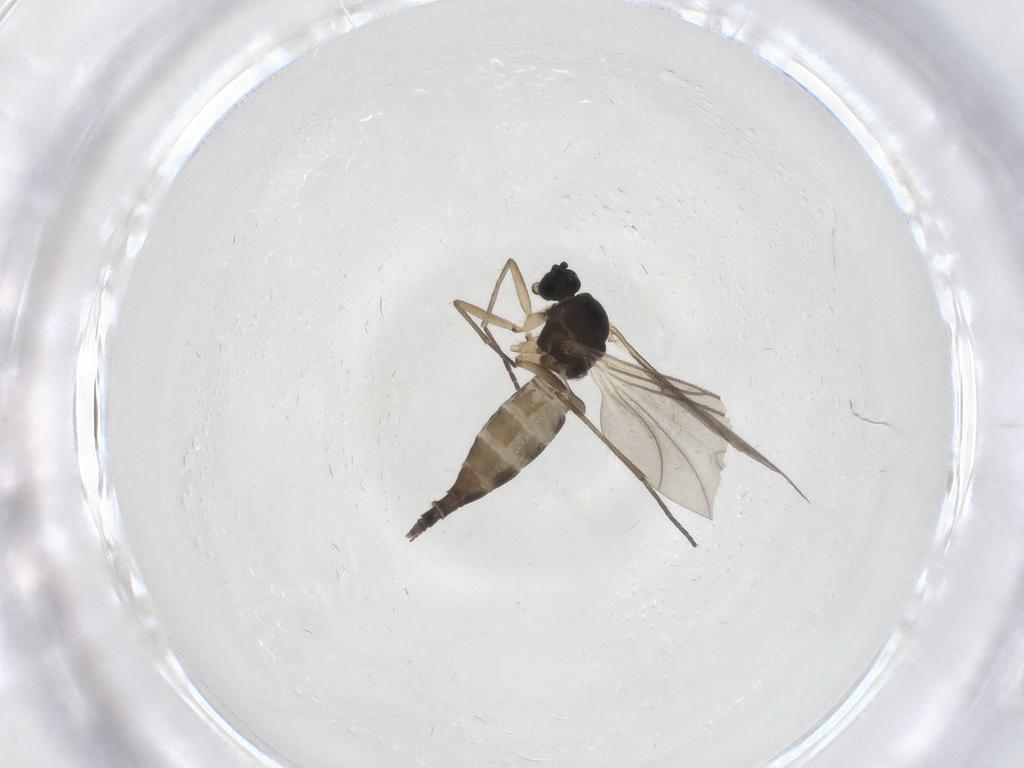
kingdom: Animalia
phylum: Arthropoda
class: Insecta
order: Diptera
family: Sciaridae
